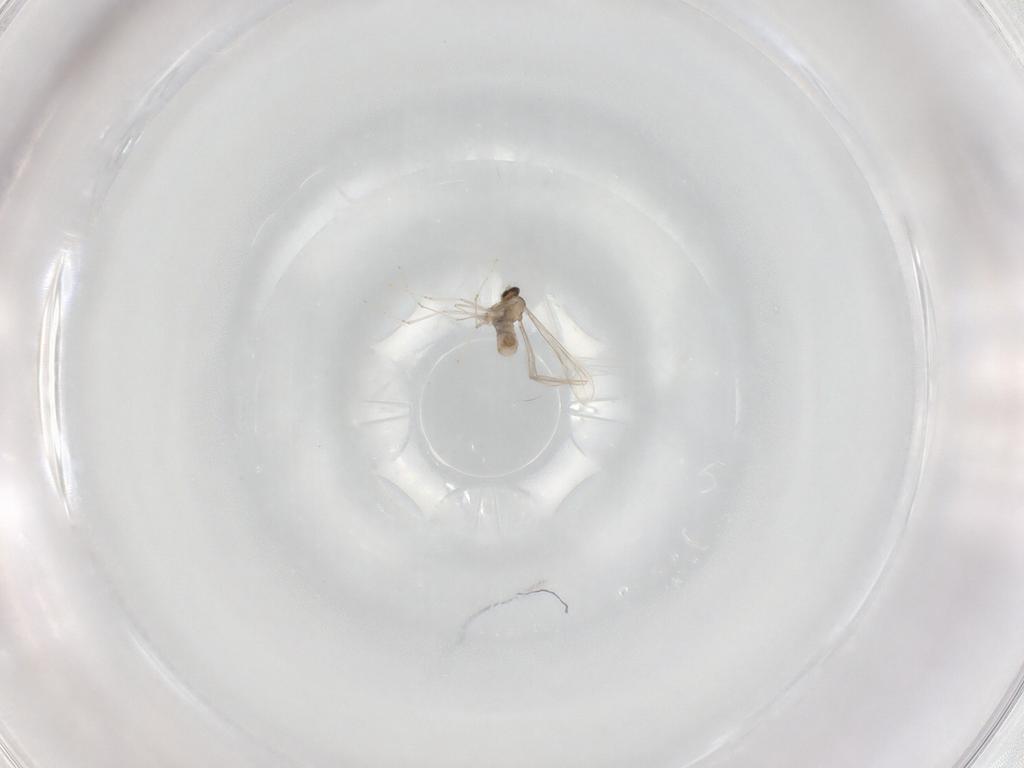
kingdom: Animalia
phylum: Arthropoda
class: Insecta
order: Diptera
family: Cecidomyiidae
